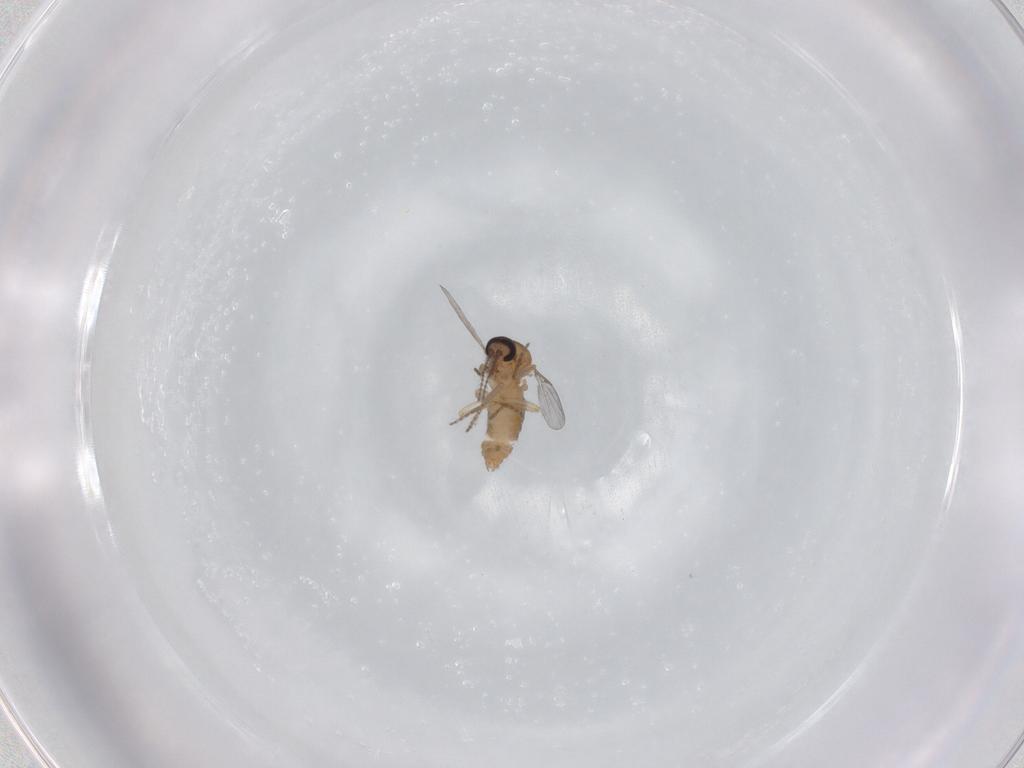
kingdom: Animalia
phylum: Arthropoda
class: Insecta
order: Diptera
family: Ceratopogonidae
